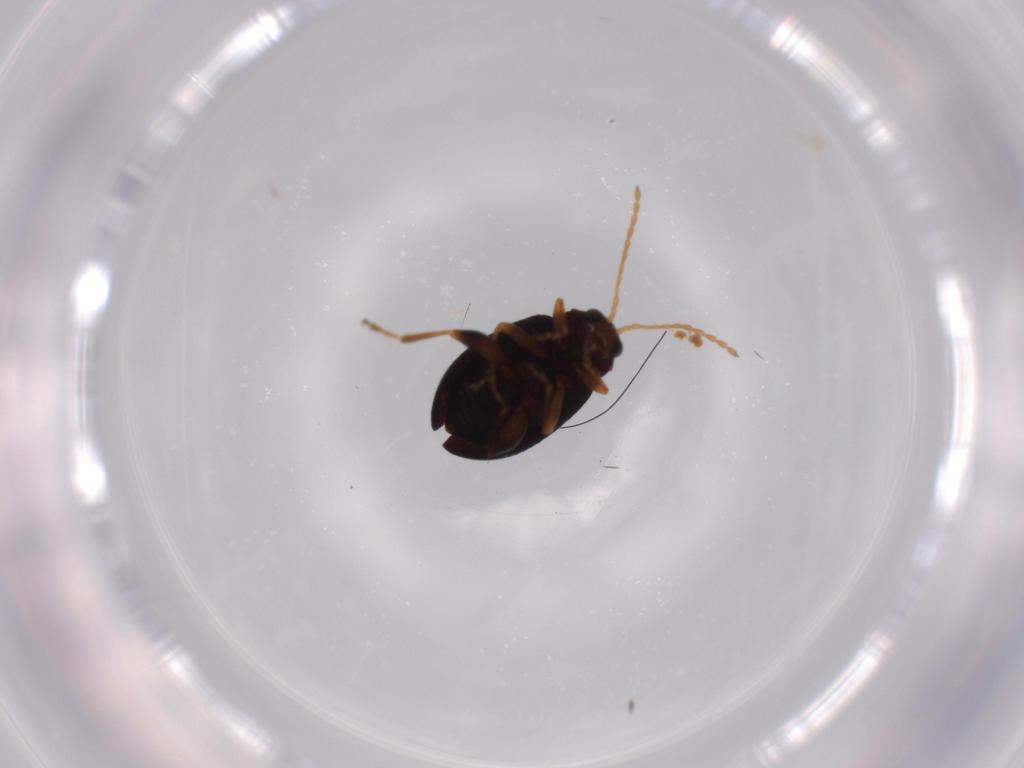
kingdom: Animalia
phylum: Arthropoda
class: Insecta
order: Coleoptera
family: Chrysomelidae
